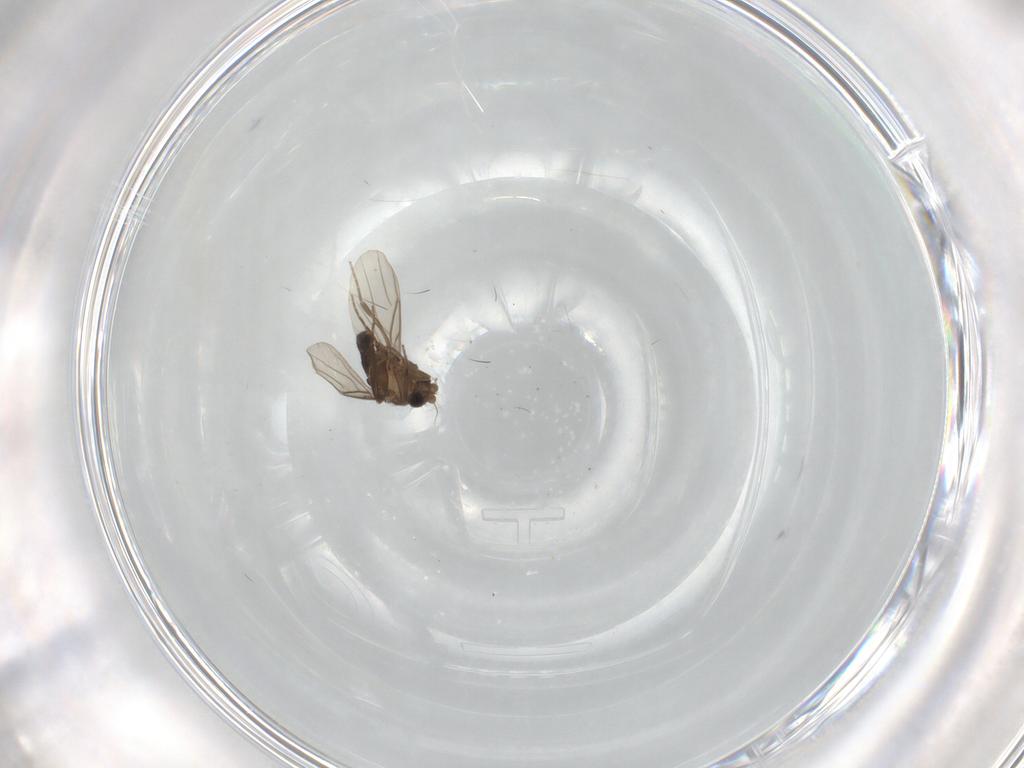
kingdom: Animalia
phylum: Arthropoda
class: Insecta
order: Diptera
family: Phoridae
